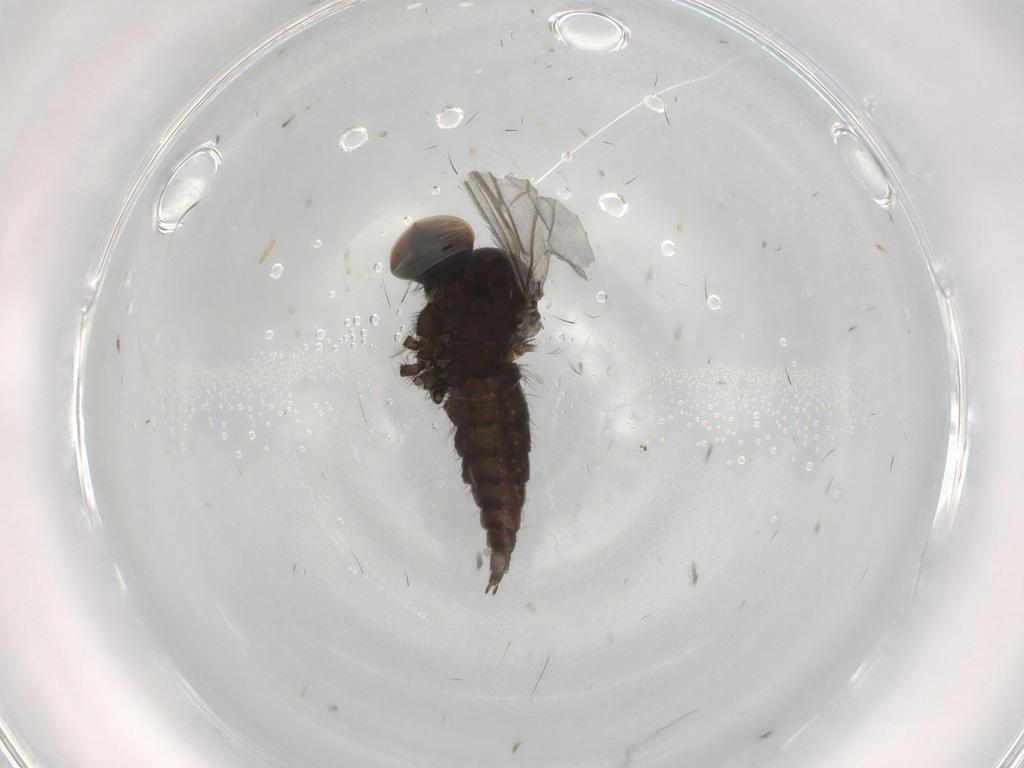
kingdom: Animalia
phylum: Arthropoda
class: Insecta
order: Diptera
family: Hybotidae
